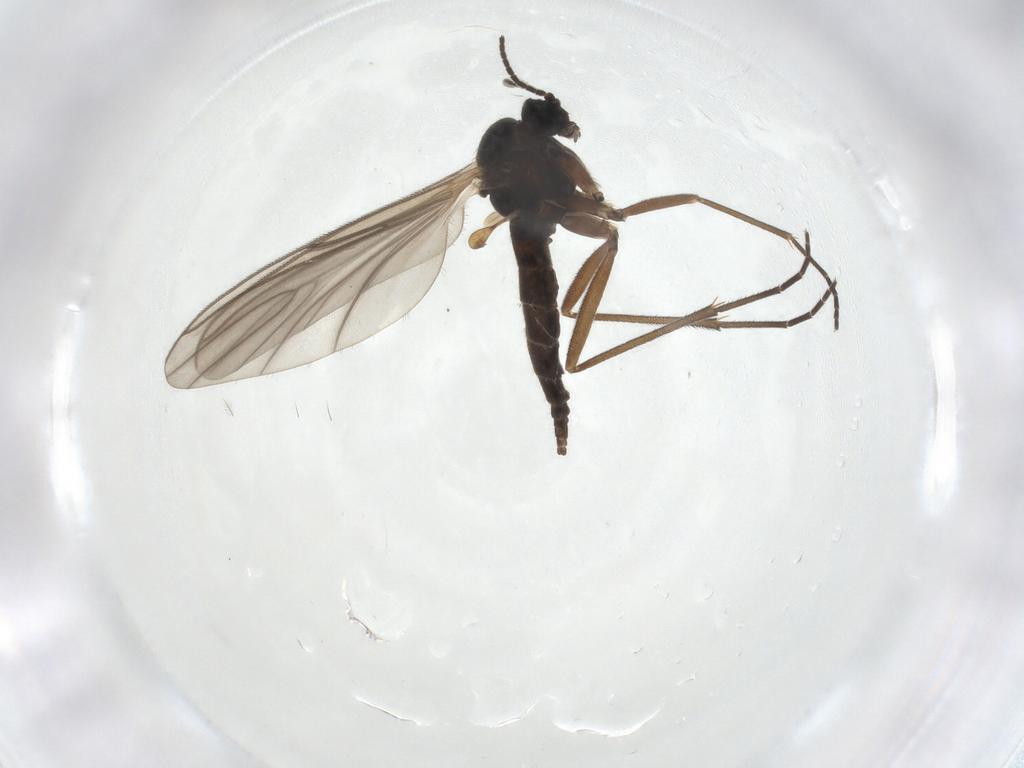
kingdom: Animalia
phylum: Arthropoda
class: Insecta
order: Diptera
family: Sciaridae
